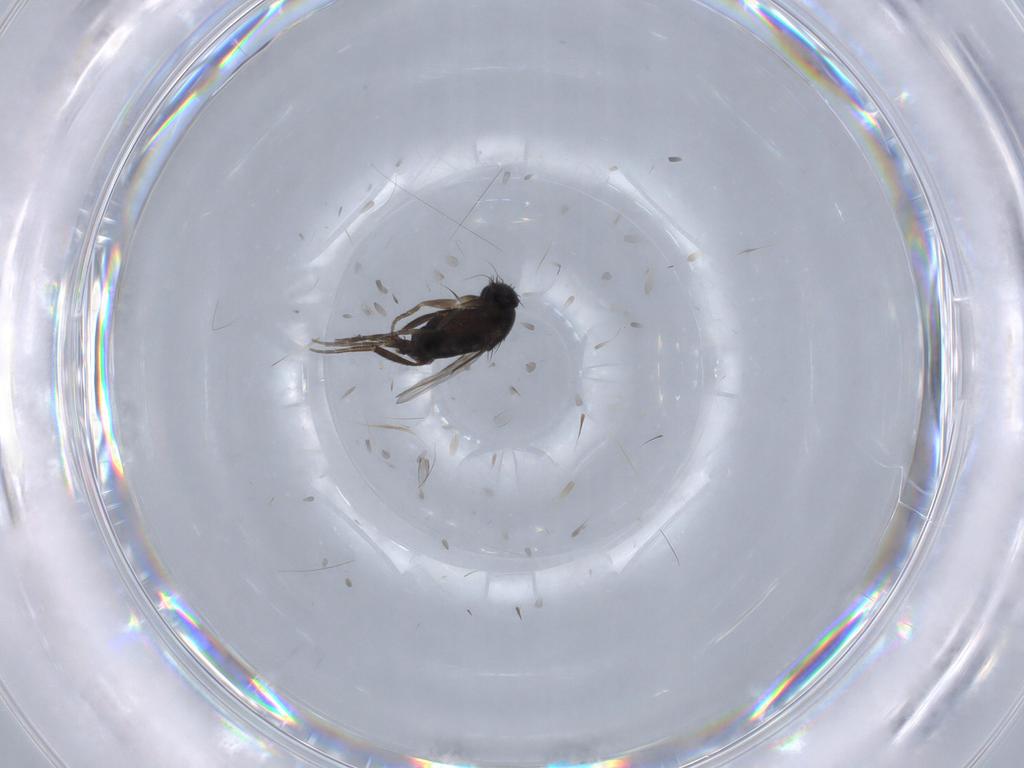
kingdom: Animalia
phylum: Arthropoda
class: Insecta
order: Diptera
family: Phoridae
